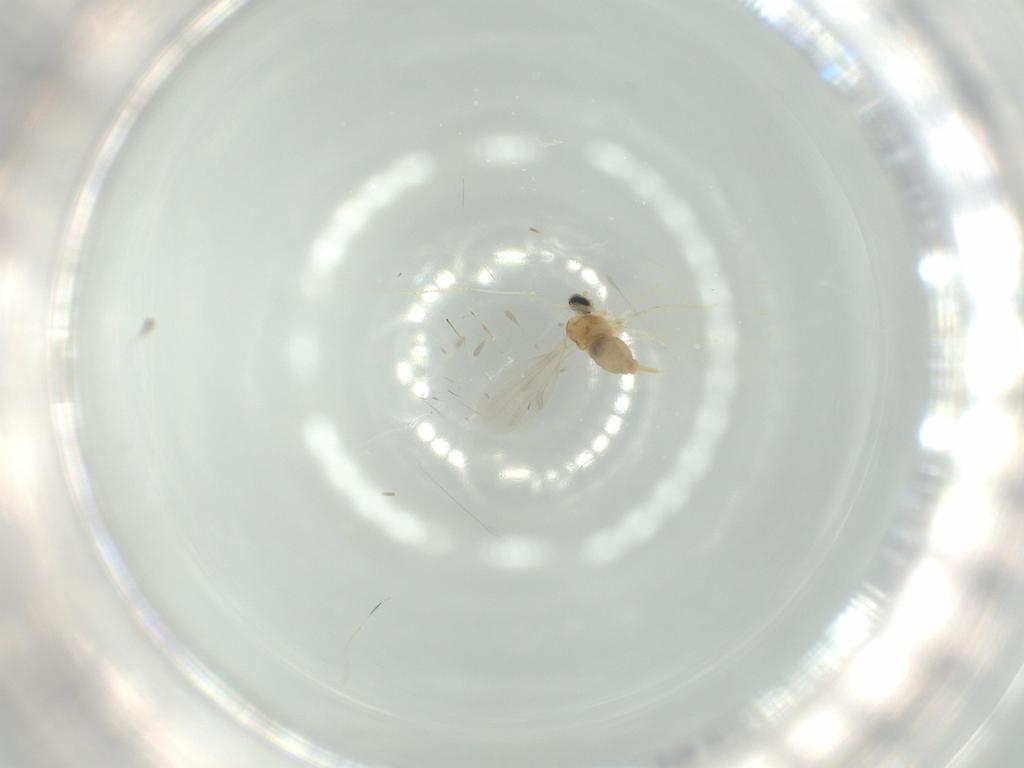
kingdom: Animalia
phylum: Arthropoda
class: Insecta
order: Diptera
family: Cecidomyiidae
